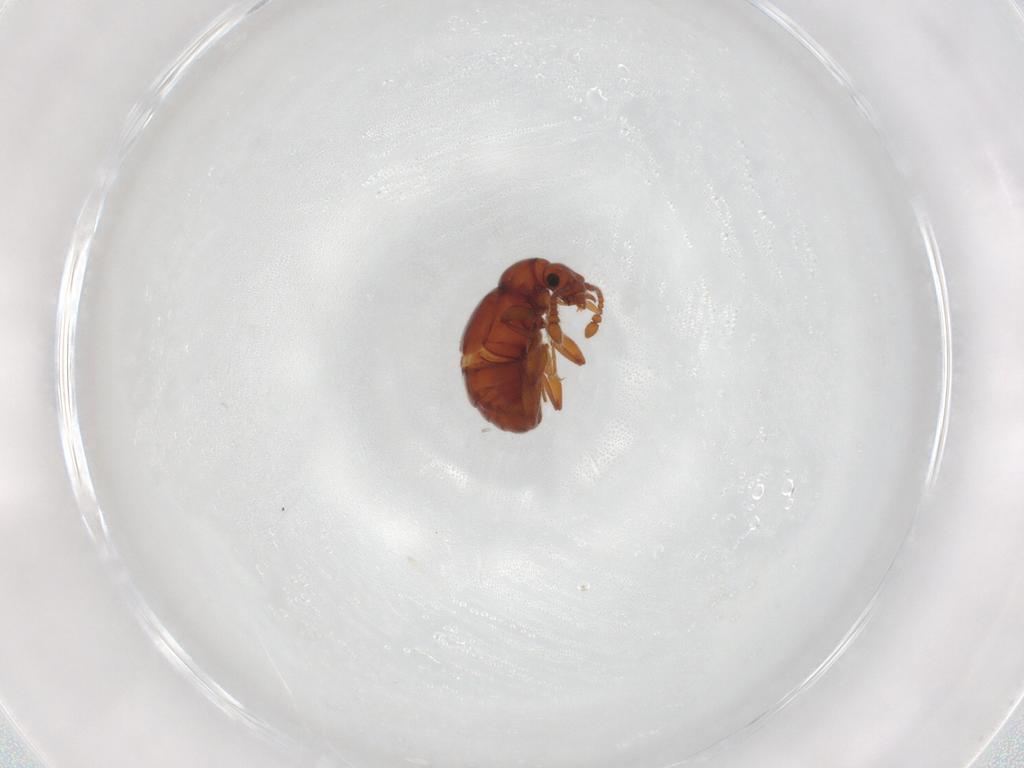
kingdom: Animalia
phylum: Arthropoda
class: Insecta
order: Coleoptera
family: Staphylinidae
